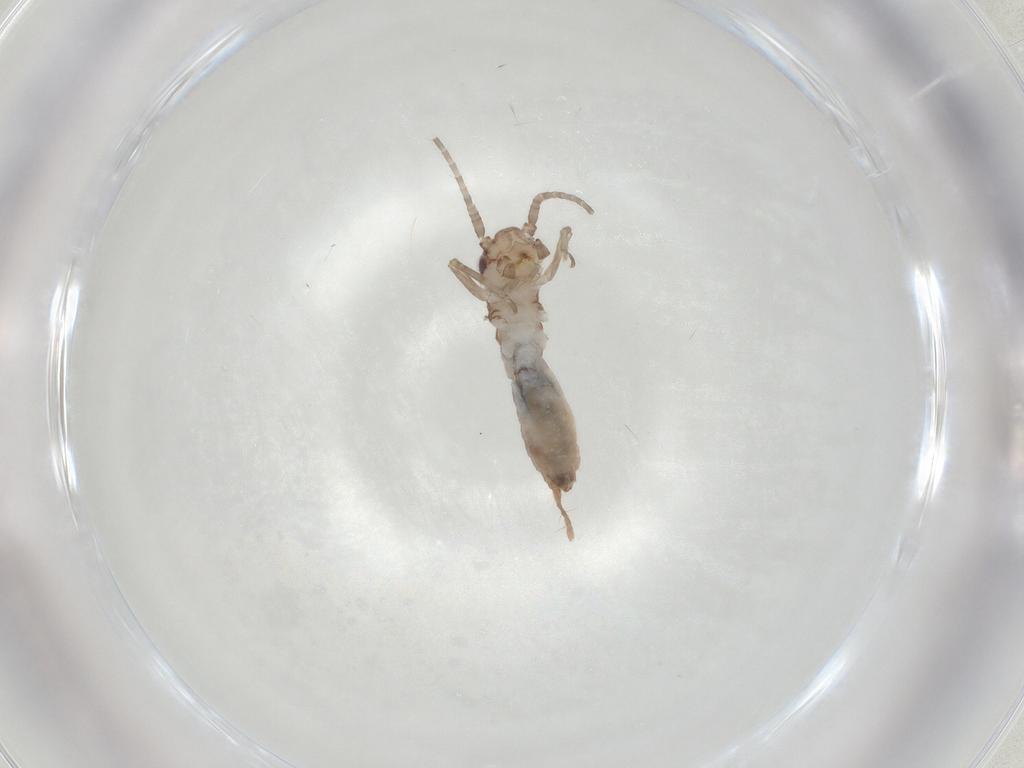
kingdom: Animalia
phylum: Arthropoda
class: Insecta
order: Orthoptera
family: Mogoplistidae
